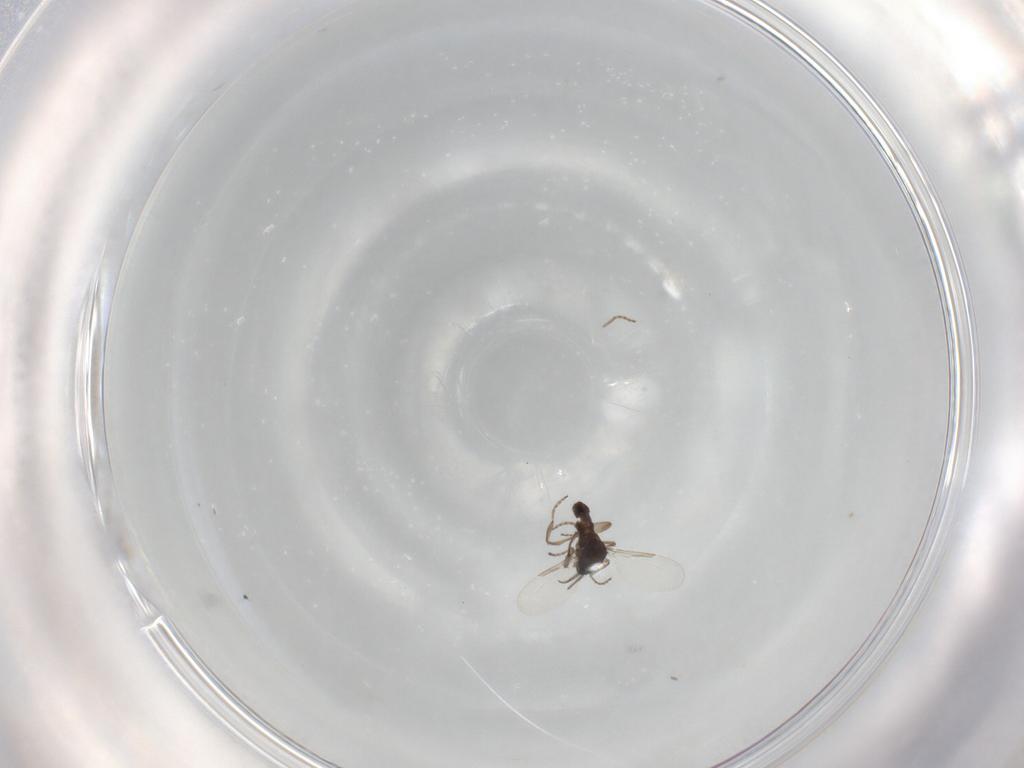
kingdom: Animalia
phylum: Arthropoda
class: Insecta
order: Diptera
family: Ceratopogonidae
